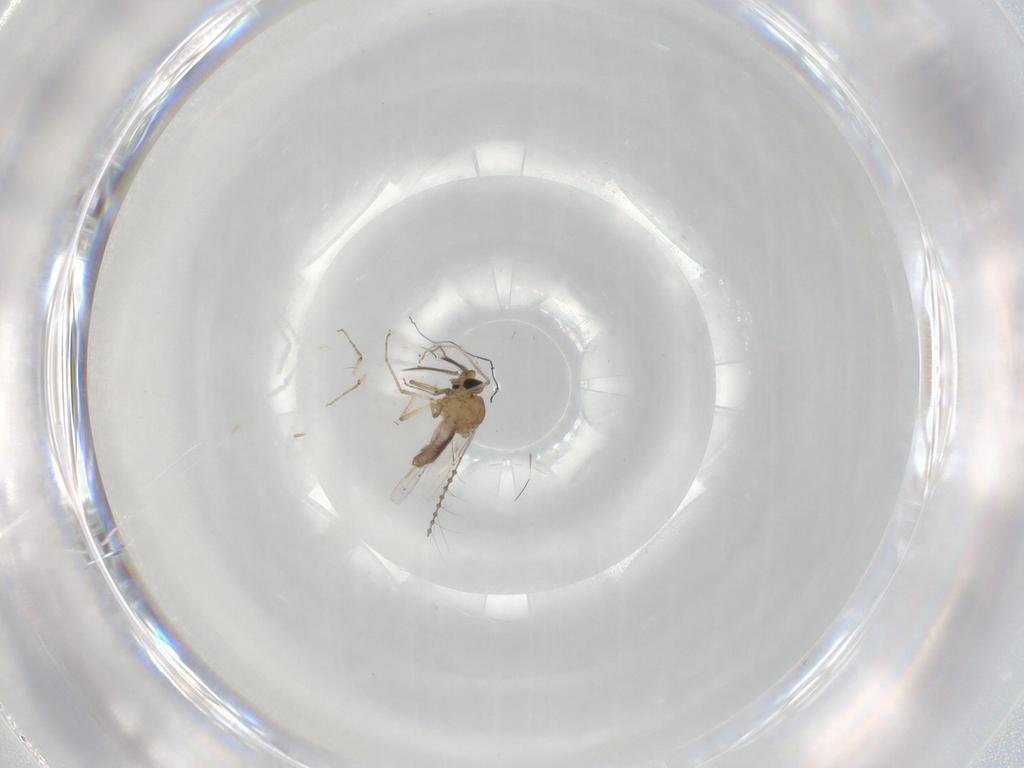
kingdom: Animalia
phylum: Arthropoda
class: Insecta
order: Diptera
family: Ceratopogonidae
